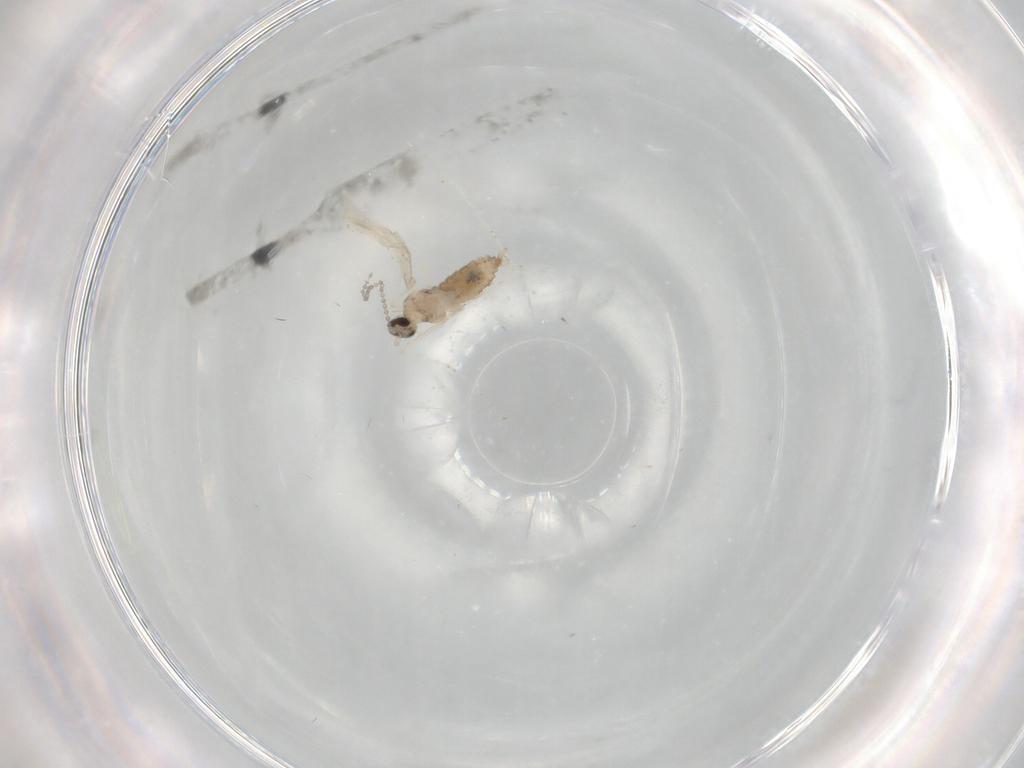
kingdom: Animalia
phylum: Arthropoda
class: Insecta
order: Diptera
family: Cecidomyiidae
